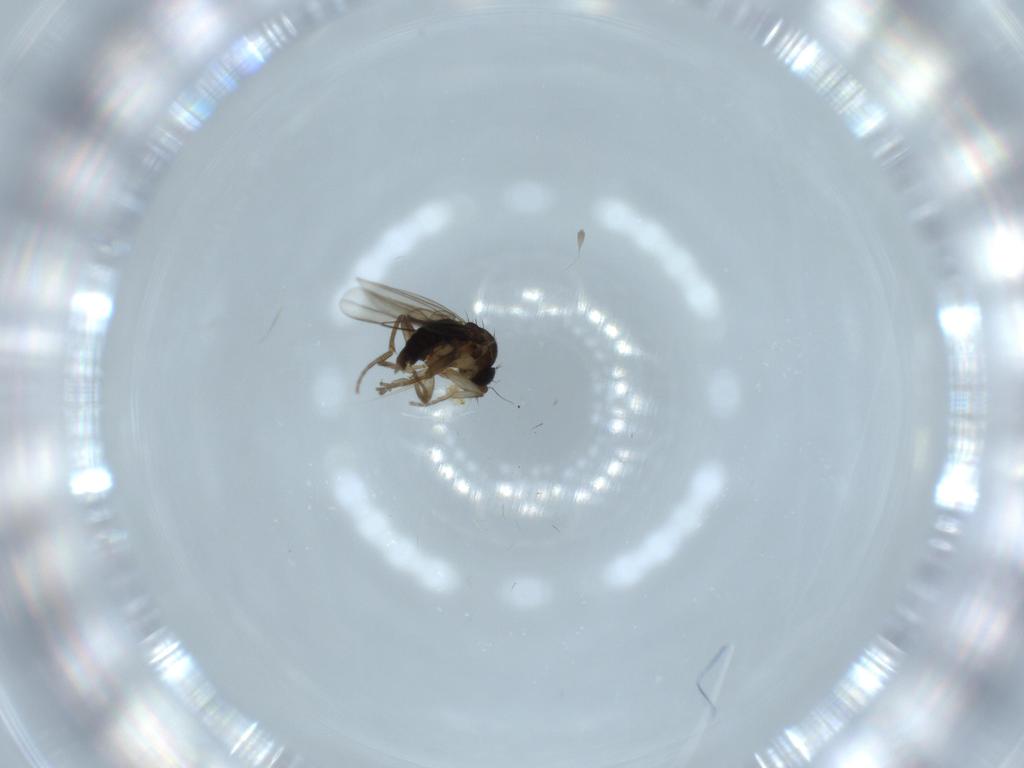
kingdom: Animalia
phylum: Arthropoda
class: Insecta
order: Diptera
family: Phoridae
